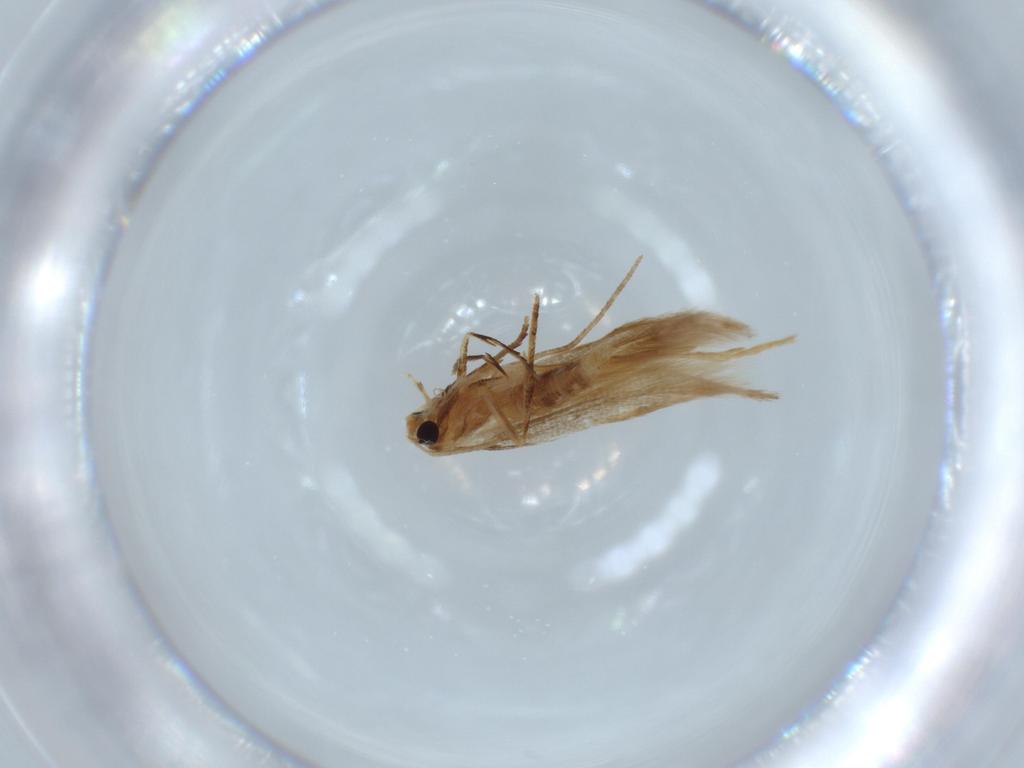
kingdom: Animalia
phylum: Arthropoda
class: Insecta
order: Lepidoptera
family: Gracillariidae
